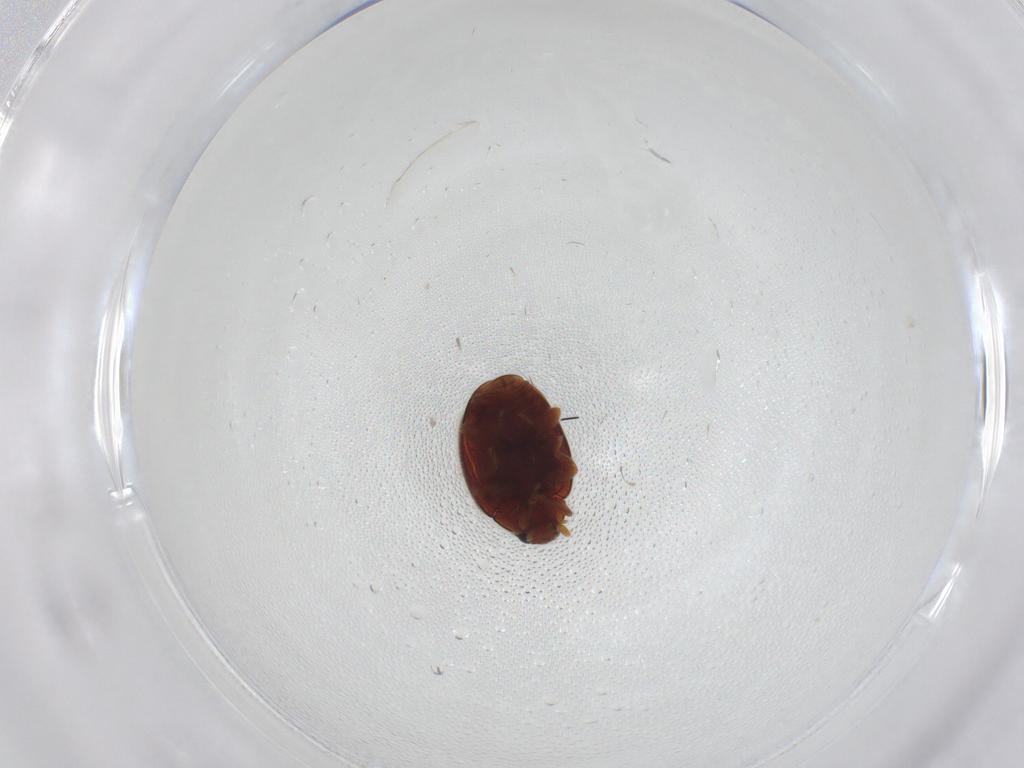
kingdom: Animalia
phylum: Arthropoda
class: Insecta
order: Coleoptera
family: Coccinellidae
